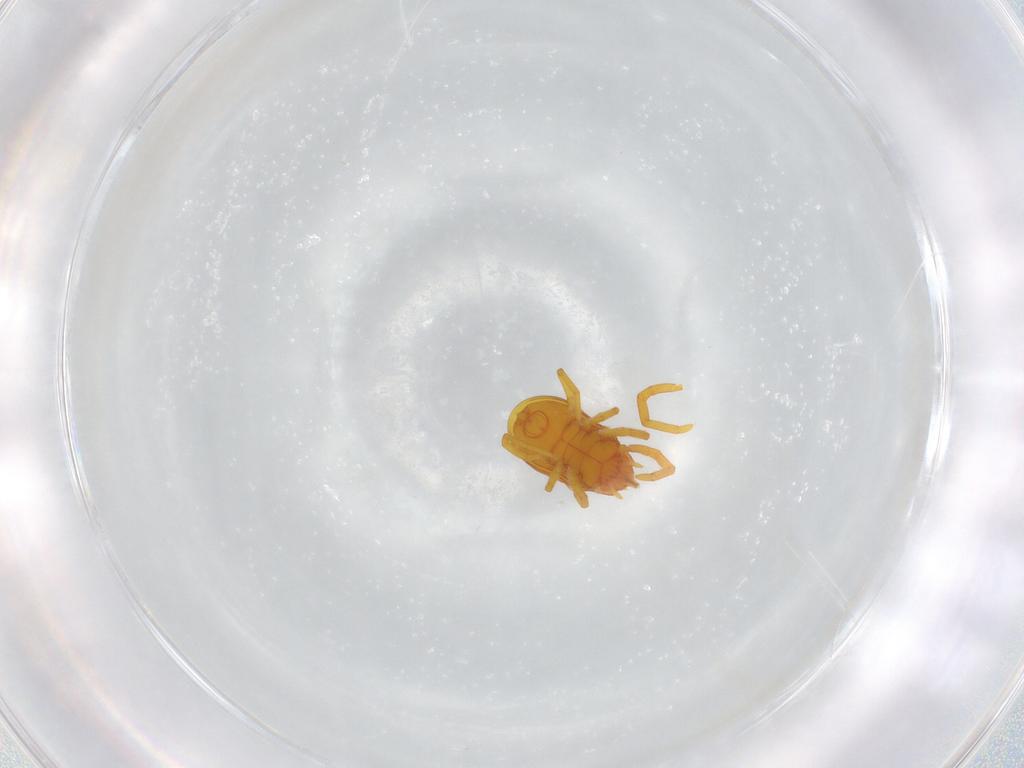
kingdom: Animalia
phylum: Arthropoda
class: Arachnida
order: Trombidiformes
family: Labidostommidae
